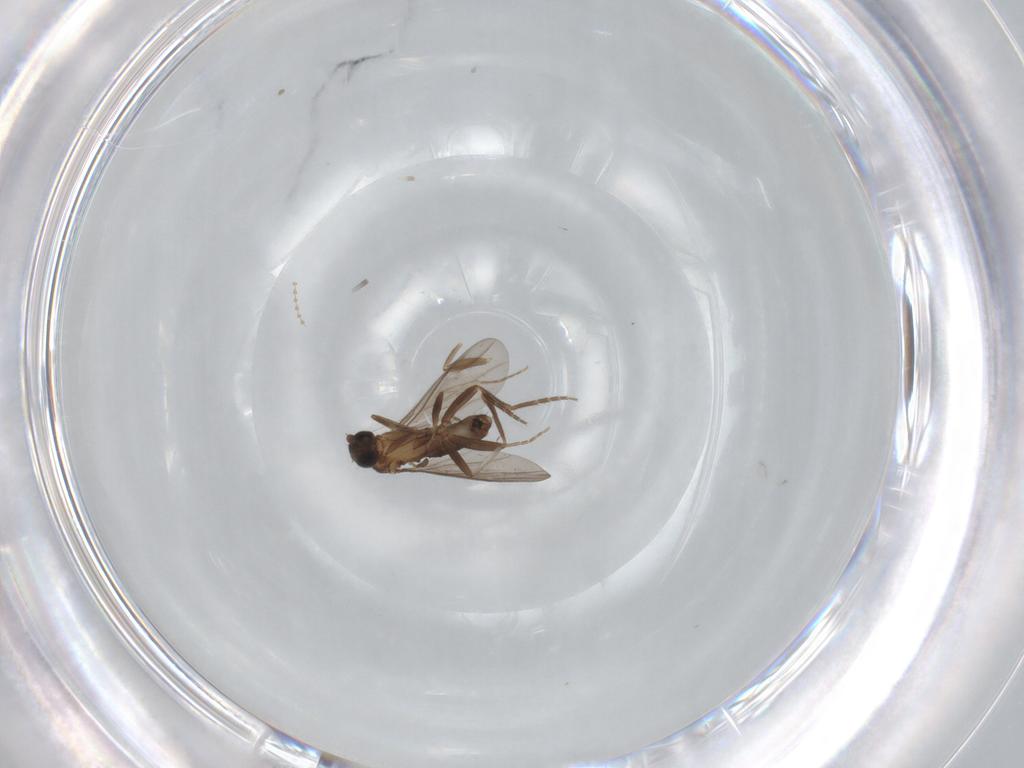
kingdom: Animalia
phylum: Arthropoda
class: Insecta
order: Diptera
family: Phoridae
